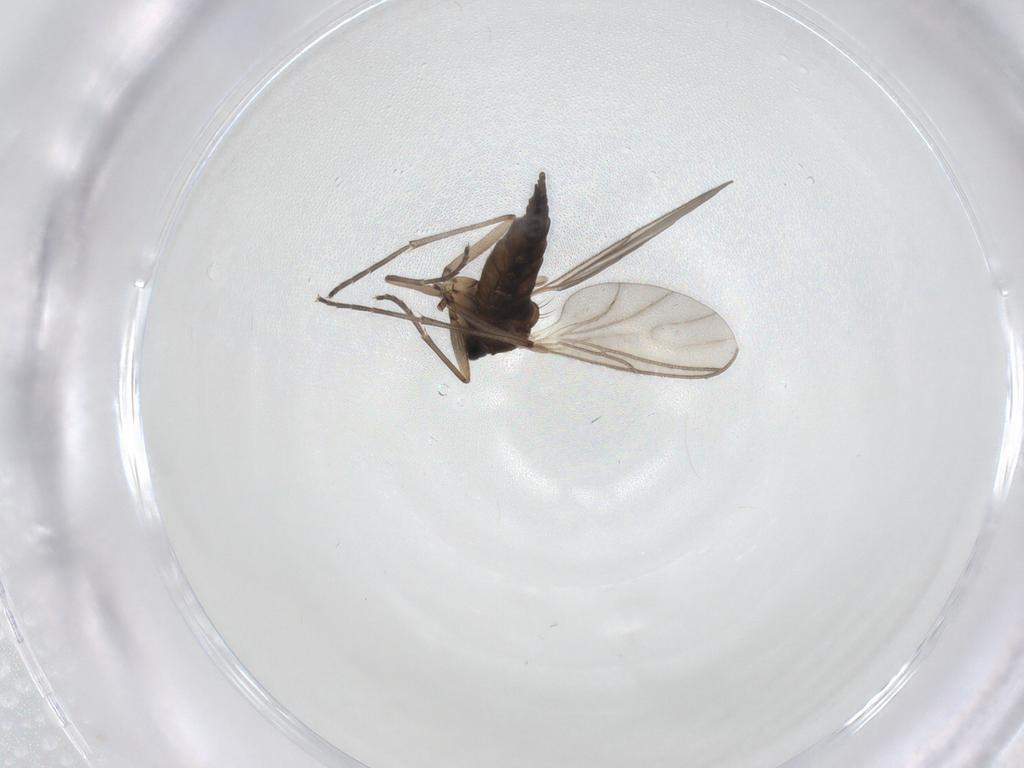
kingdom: Animalia
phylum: Arthropoda
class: Insecta
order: Diptera
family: Sciaridae
